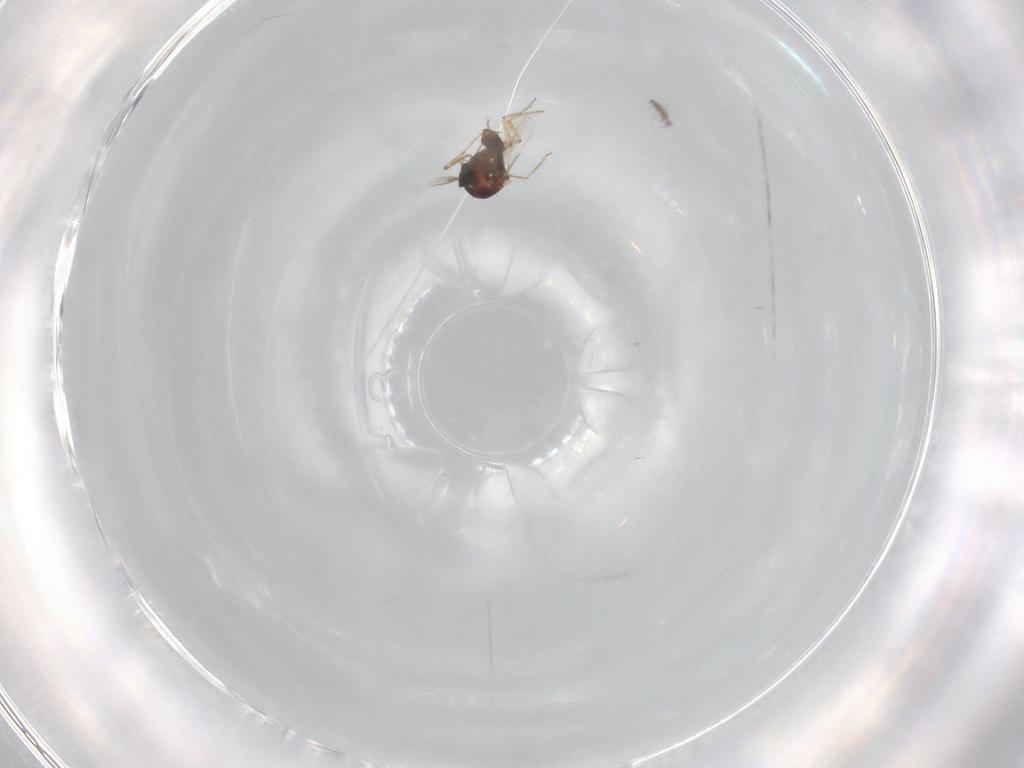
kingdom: Animalia
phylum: Arthropoda
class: Insecta
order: Diptera
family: Ceratopogonidae
